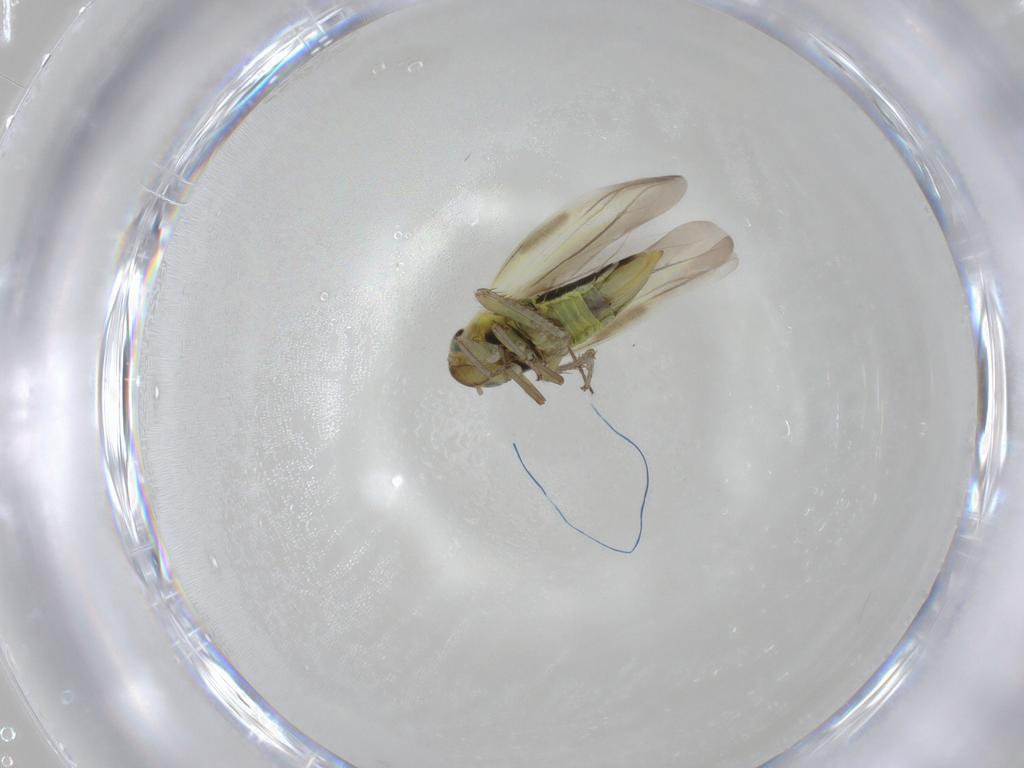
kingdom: Animalia
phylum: Arthropoda
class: Insecta
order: Hemiptera
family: Cicadellidae
